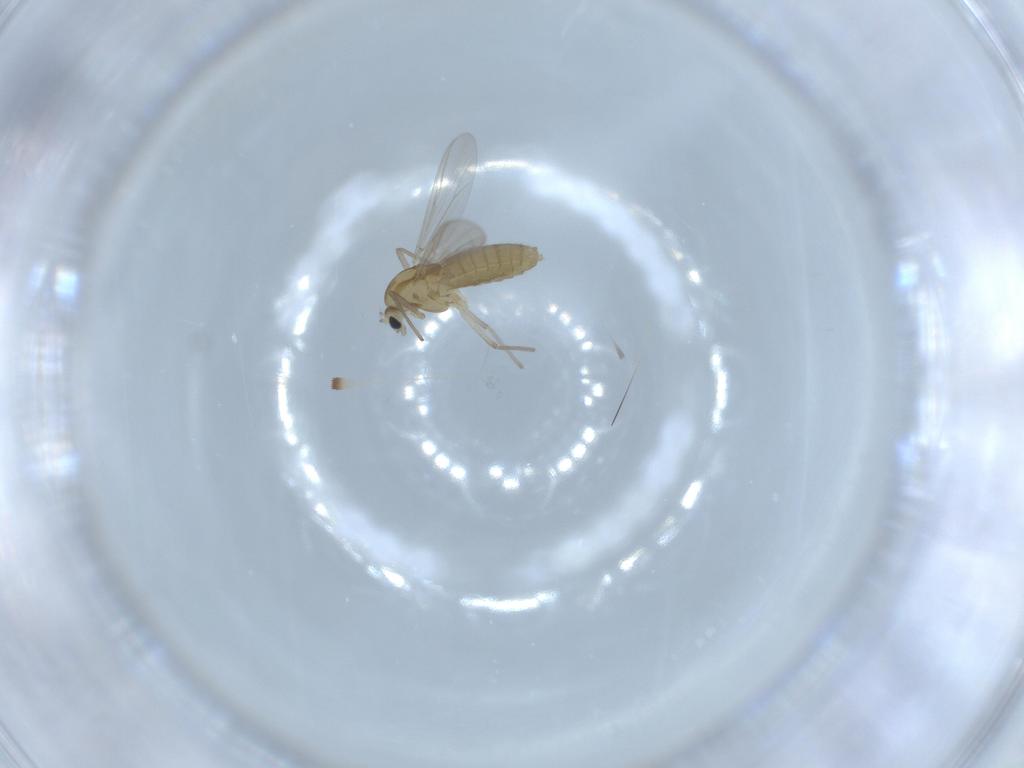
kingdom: Animalia
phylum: Arthropoda
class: Insecta
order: Diptera
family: Chironomidae
